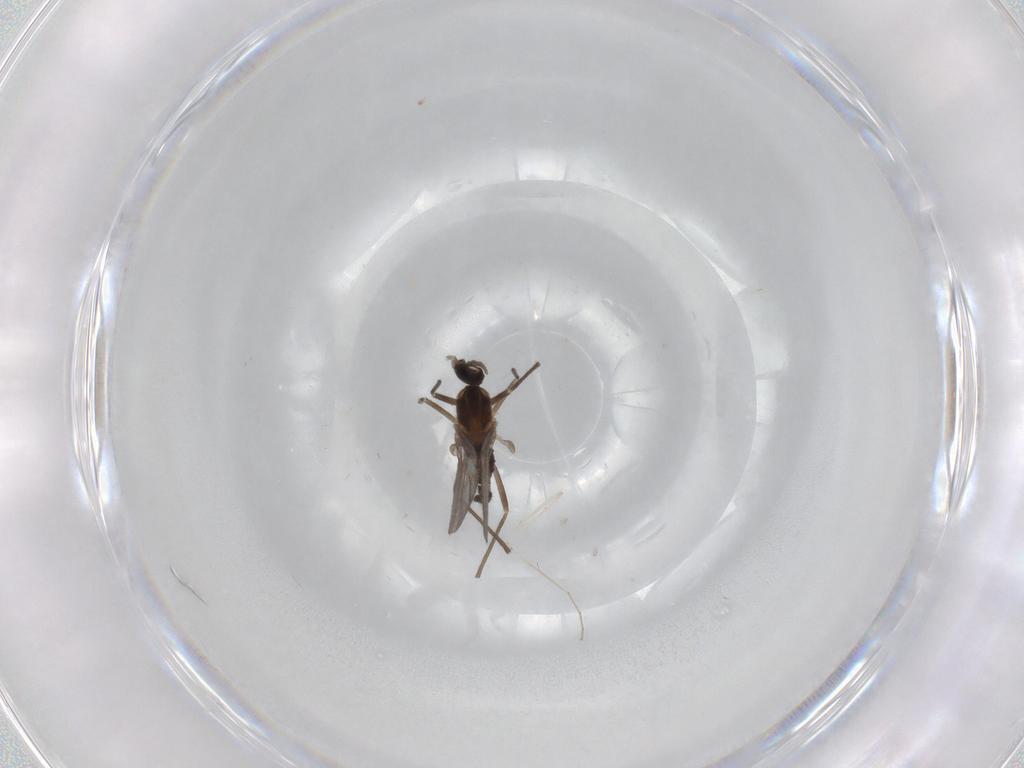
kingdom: Animalia
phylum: Arthropoda
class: Insecta
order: Diptera
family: Cecidomyiidae
